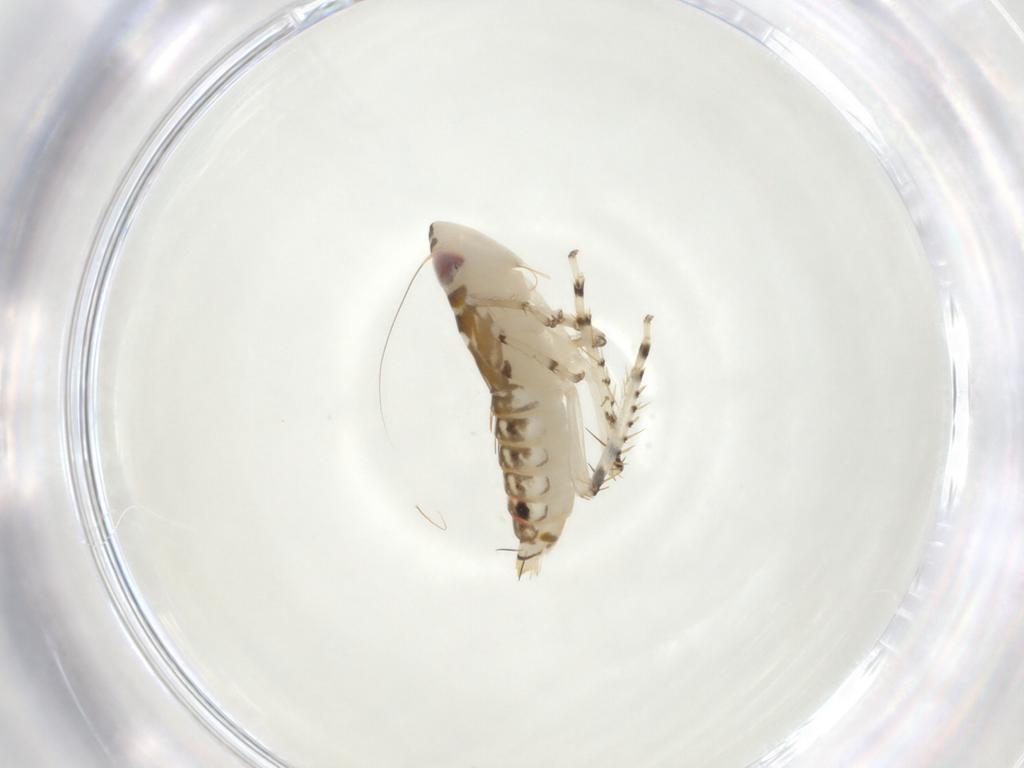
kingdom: Animalia
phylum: Arthropoda
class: Insecta
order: Hemiptera
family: Cicadellidae
